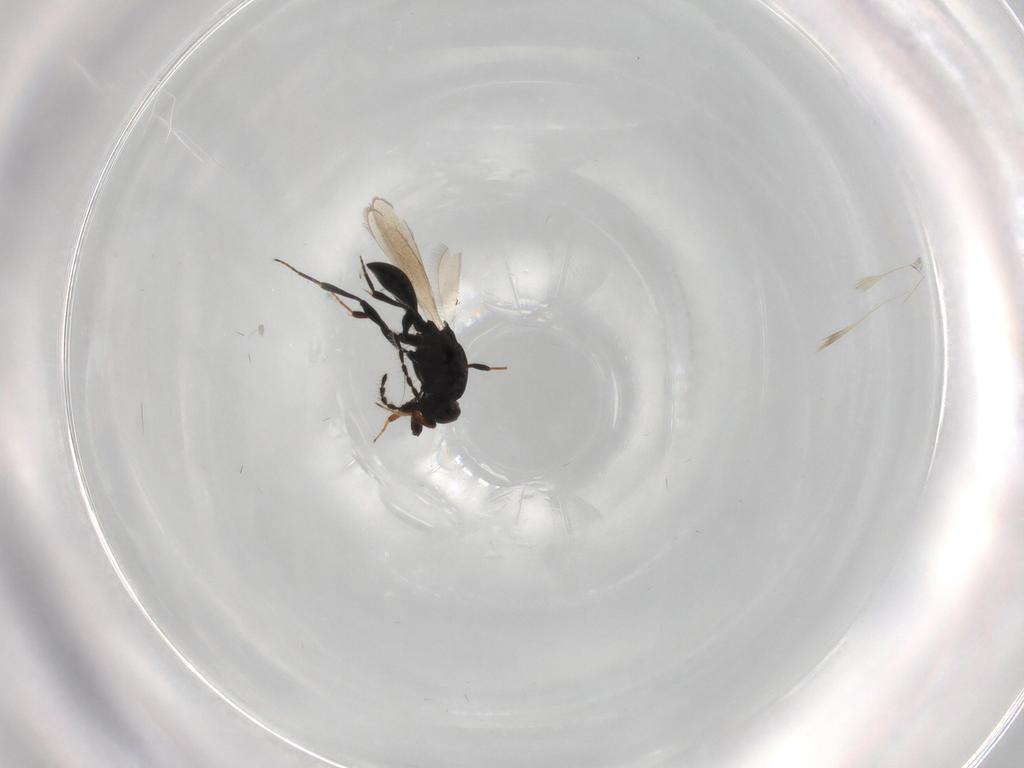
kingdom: Animalia
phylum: Arthropoda
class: Insecta
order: Hymenoptera
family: Platygastridae
